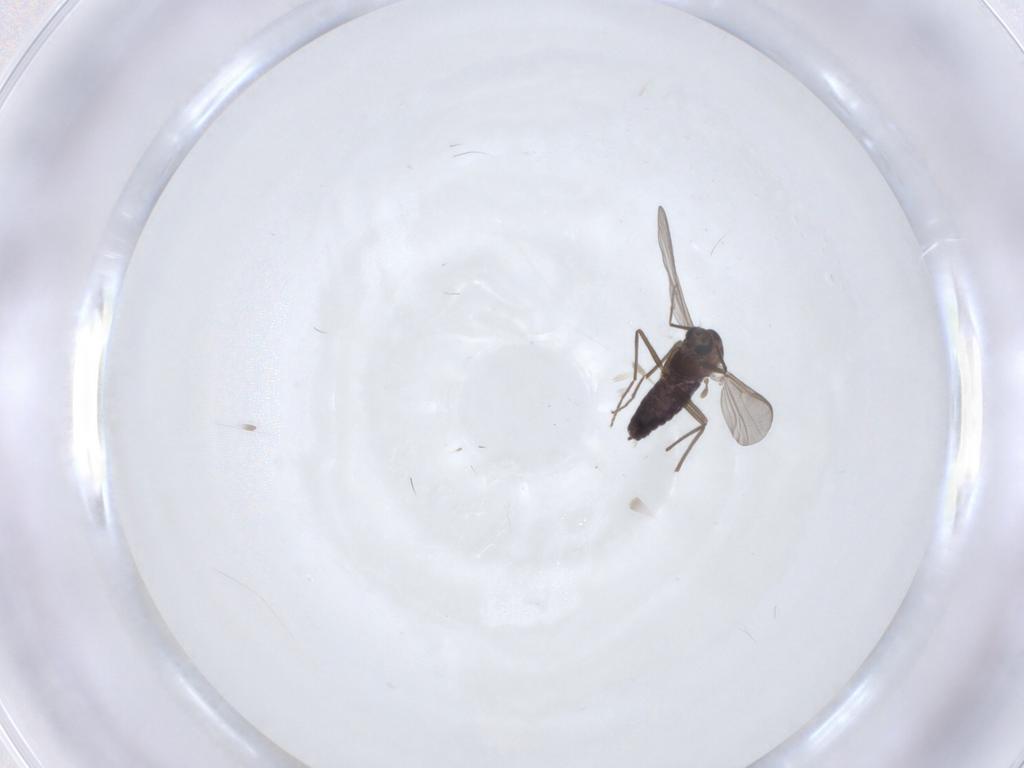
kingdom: Animalia
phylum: Arthropoda
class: Insecta
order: Diptera
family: Chironomidae
